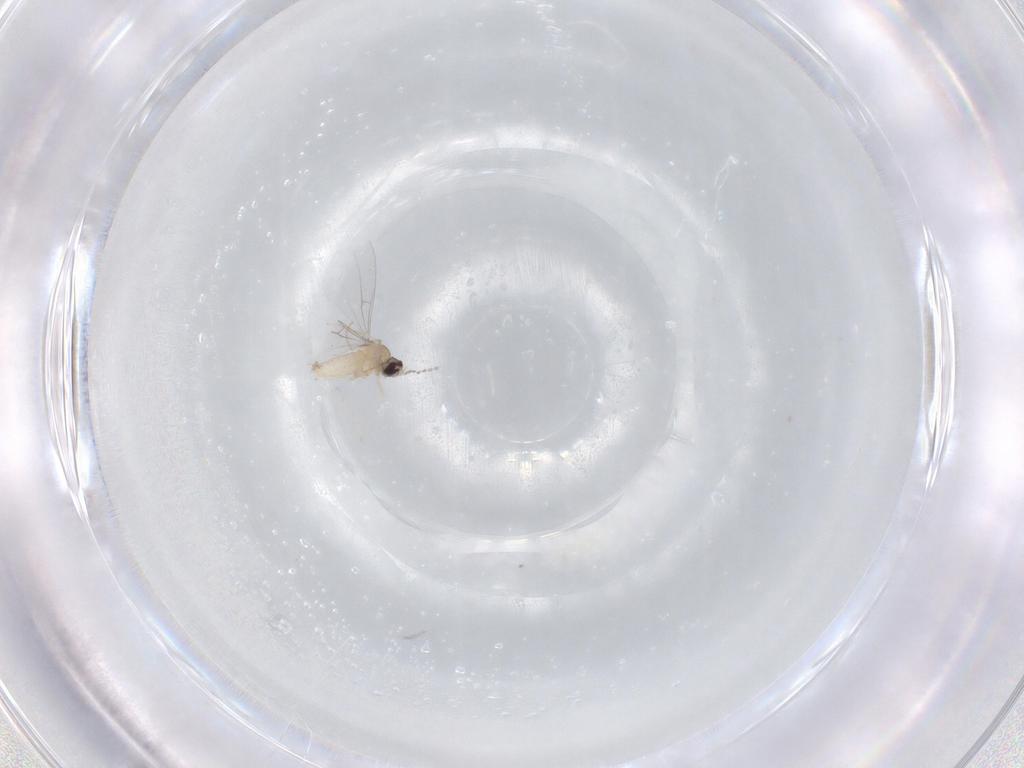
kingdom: Animalia
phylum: Arthropoda
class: Insecta
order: Diptera
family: Cecidomyiidae
